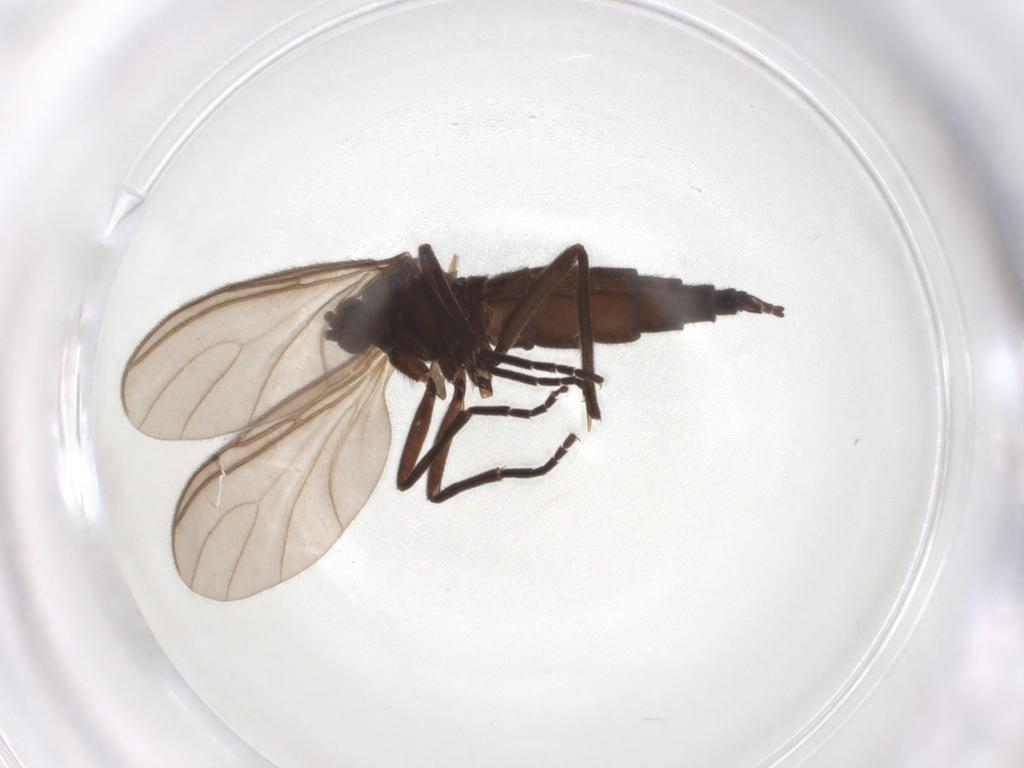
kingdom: Animalia
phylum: Arthropoda
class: Insecta
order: Diptera
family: Sciaridae
